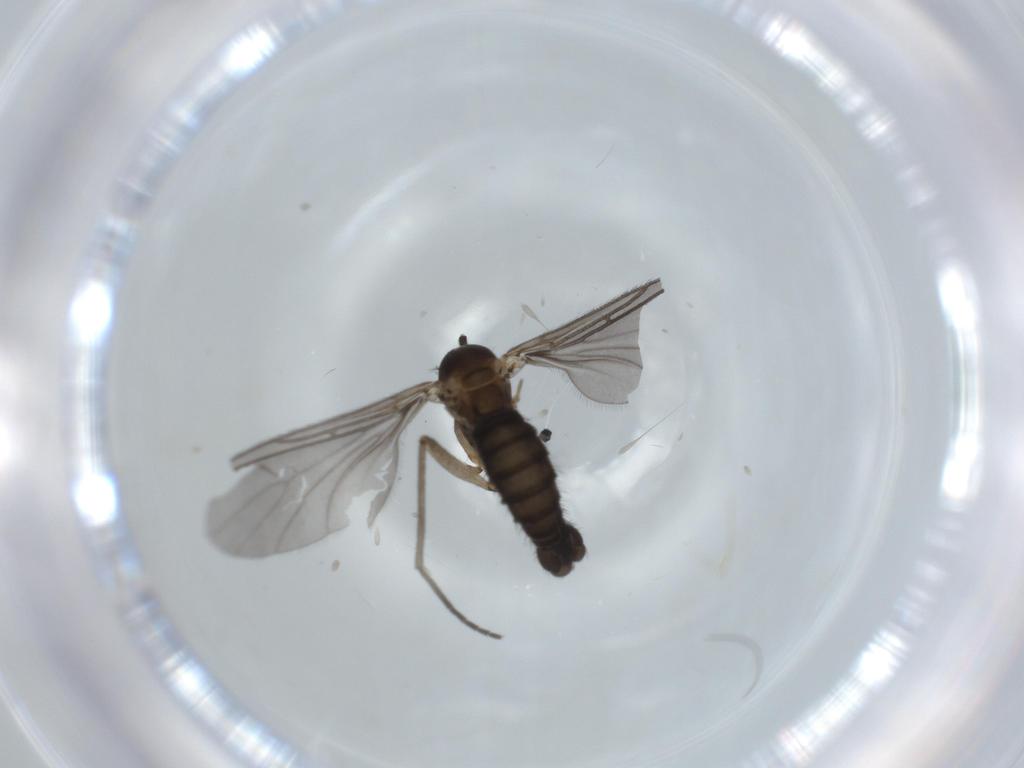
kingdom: Animalia
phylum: Arthropoda
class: Insecta
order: Diptera
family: Sciaridae
